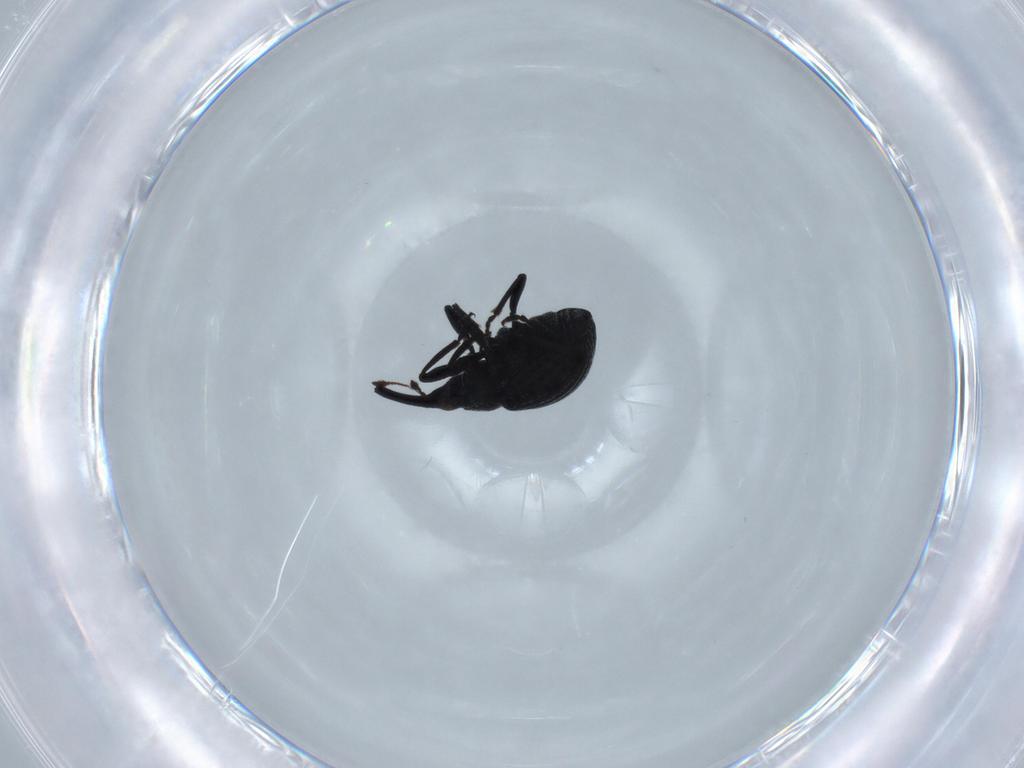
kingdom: Animalia
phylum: Arthropoda
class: Insecta
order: Coleoptera
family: Brentidae
